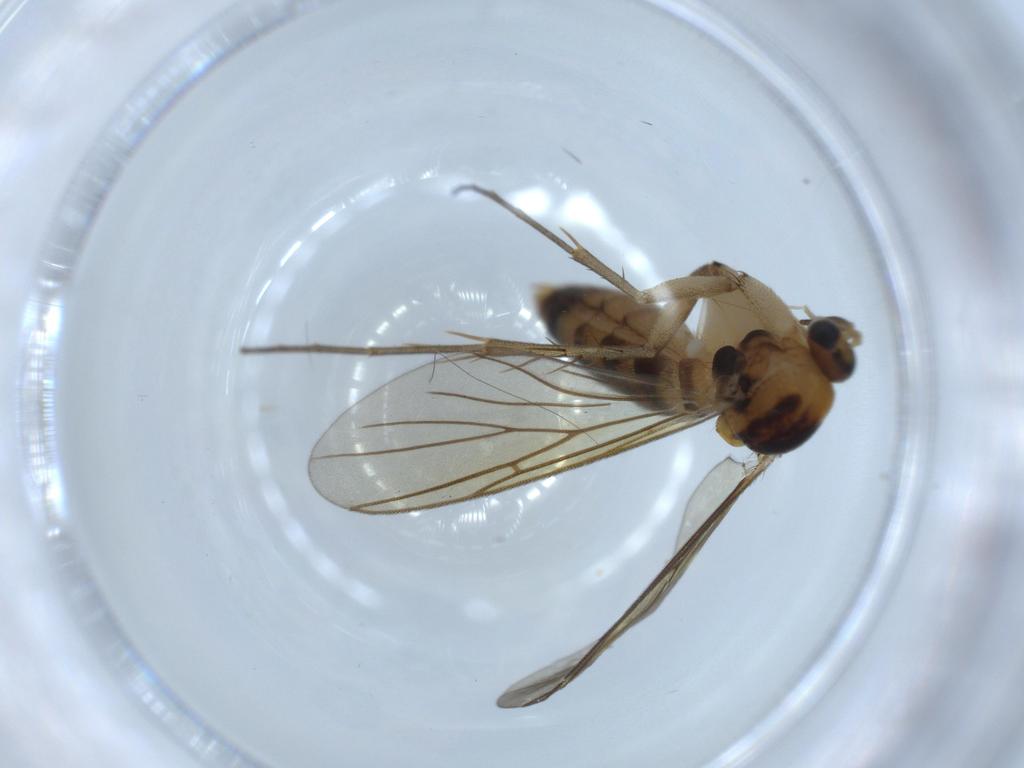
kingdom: Animalia
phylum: Arthropoda
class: Insecta
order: Diptera
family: Mycetophilidae
